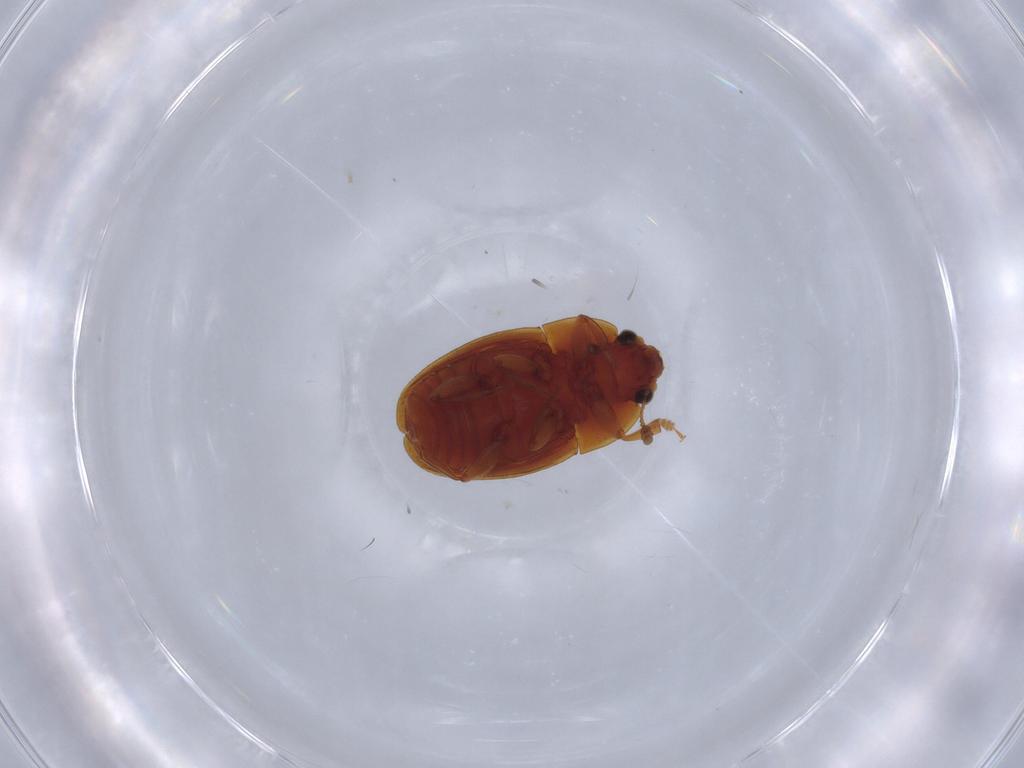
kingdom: Animalia
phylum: Arthropoda
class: Insecta
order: Coleoptera
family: Nitidulidae
